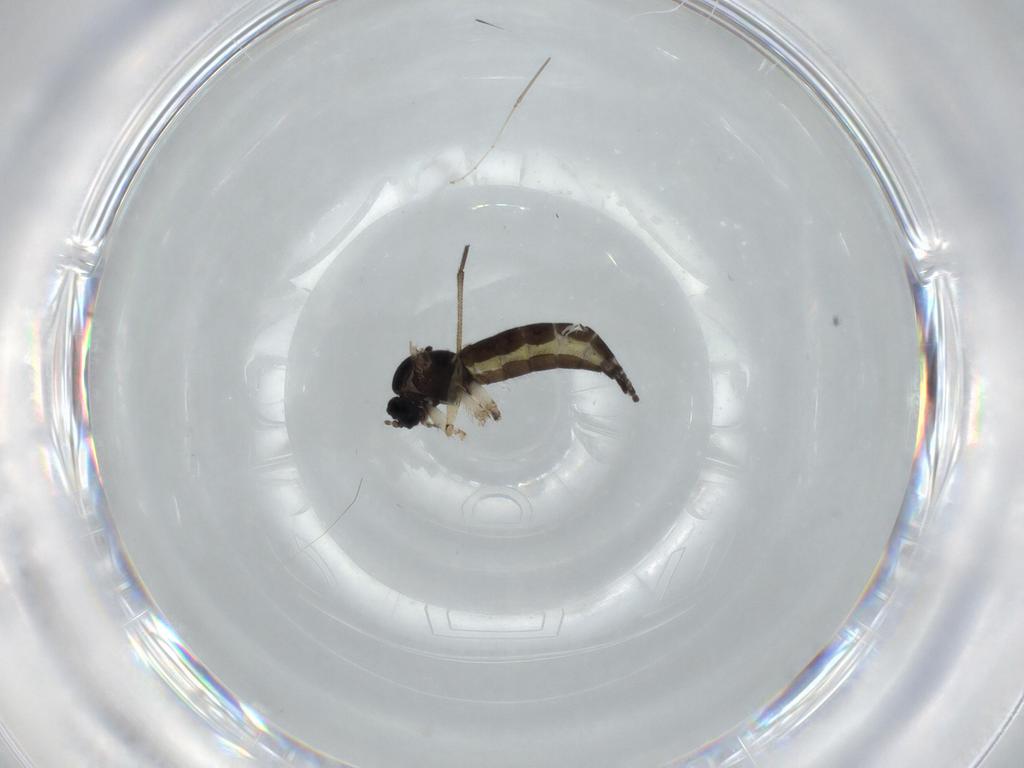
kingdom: Animalia
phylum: Arthropoda
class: Insecta
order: Diptera
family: Sciaridae
